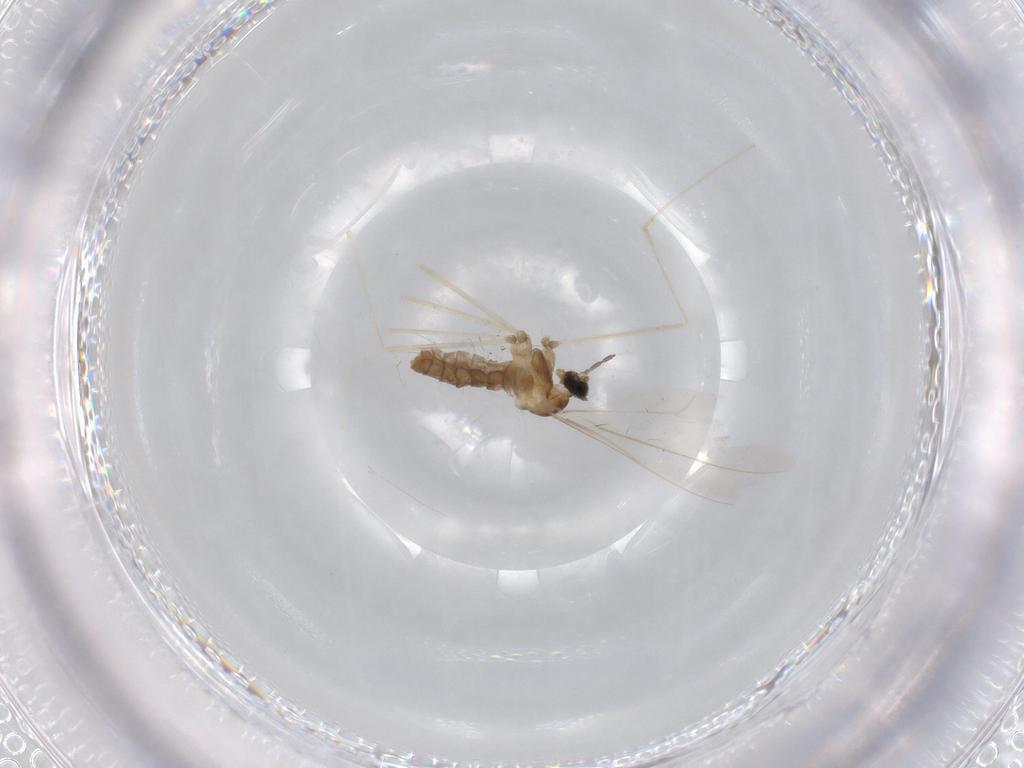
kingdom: Animalia
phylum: Arthropoda
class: Insecta
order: Diptera
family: Cecidomyiidae
